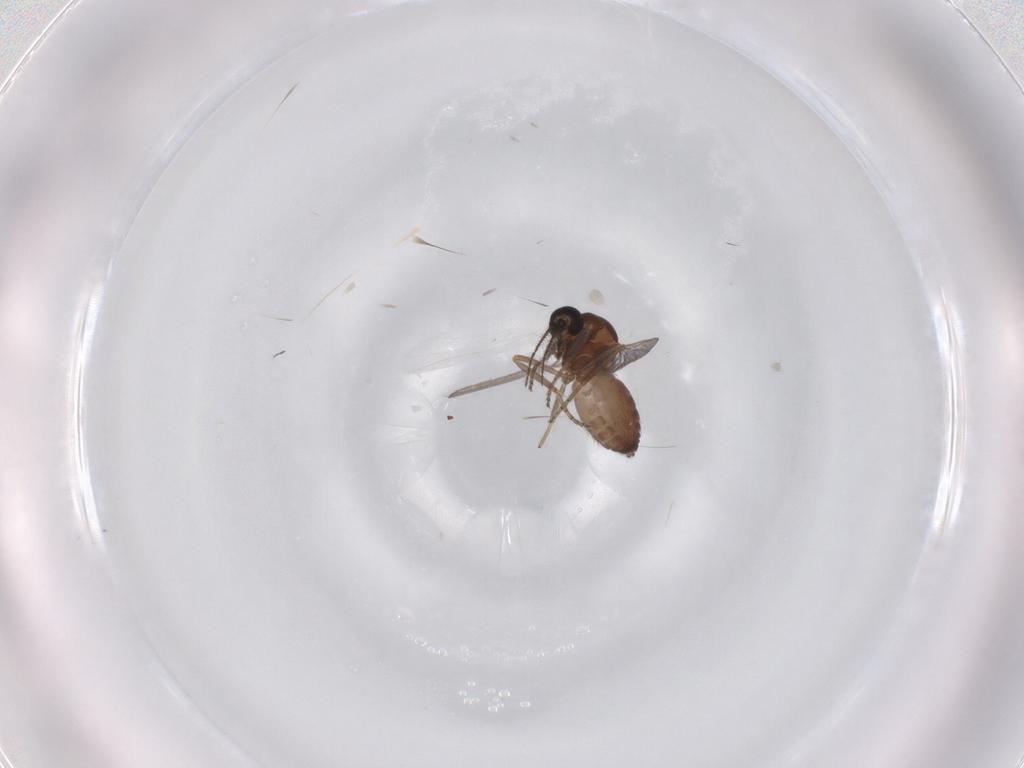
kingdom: Animalia
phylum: Arthropoda
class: Insecta
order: Diptera
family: Ceratopogonidae
